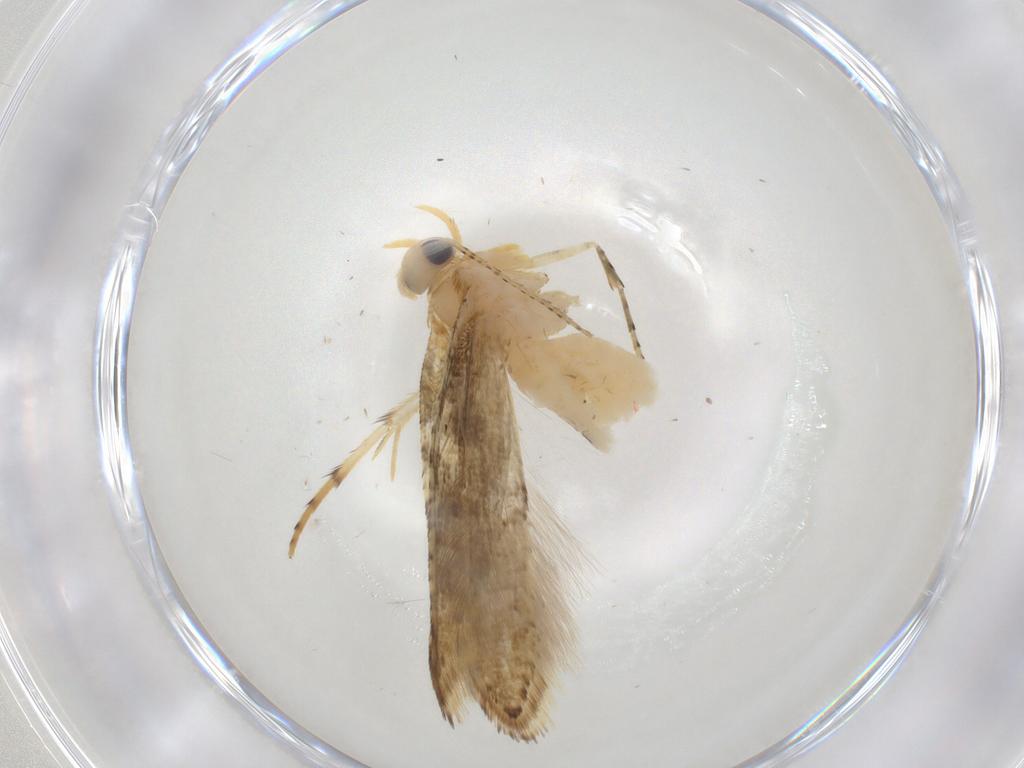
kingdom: Animalia
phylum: Arthropoda
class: Insecta
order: Lepidoptera
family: Argyresthiidae
